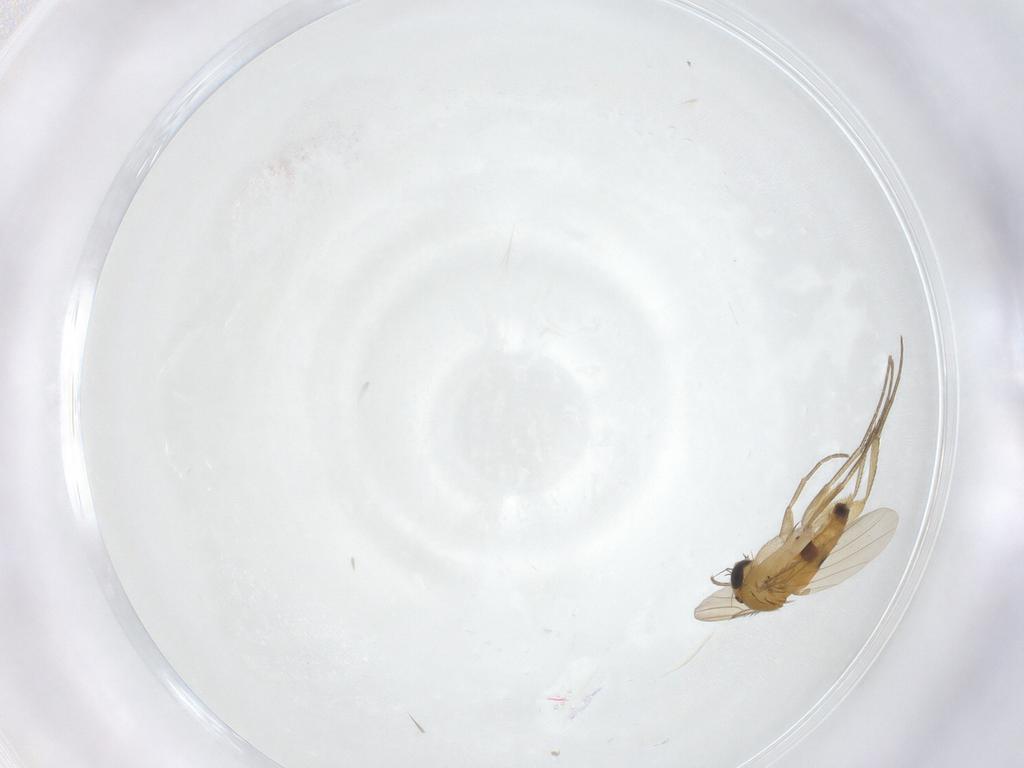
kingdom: Animalia
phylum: Arthropoda
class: Insecta
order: Diptera
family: Phoridae
